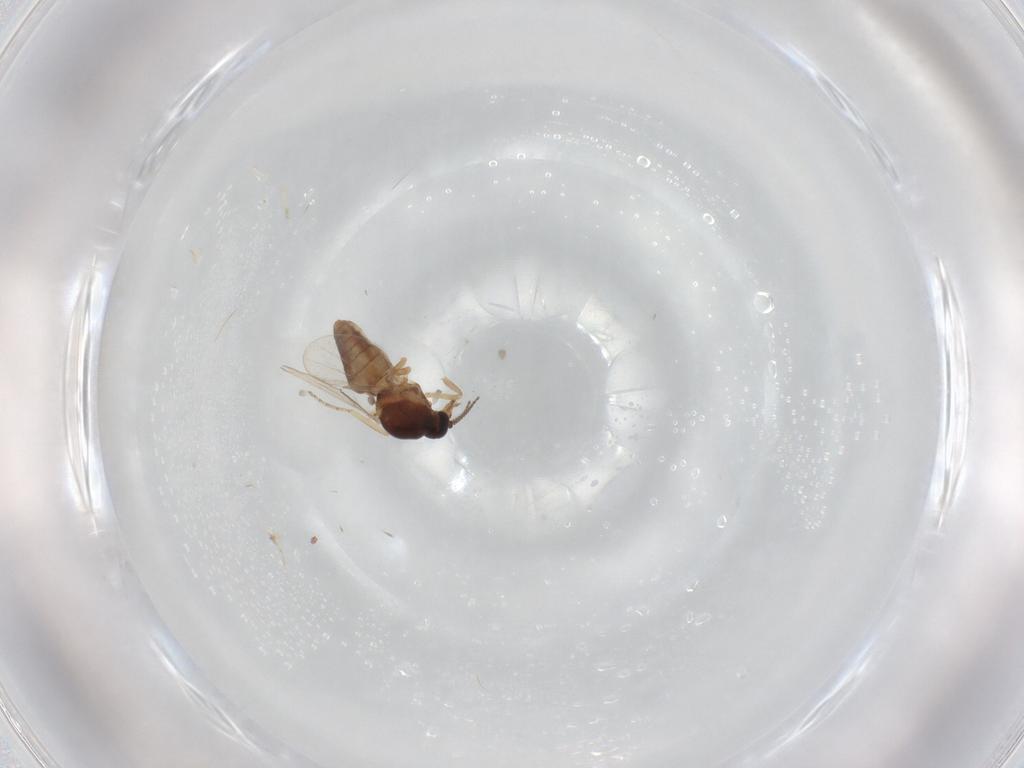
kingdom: Animalia
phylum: Arthropoda
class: Insecta
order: Diptera
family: Ceratopogonidae
